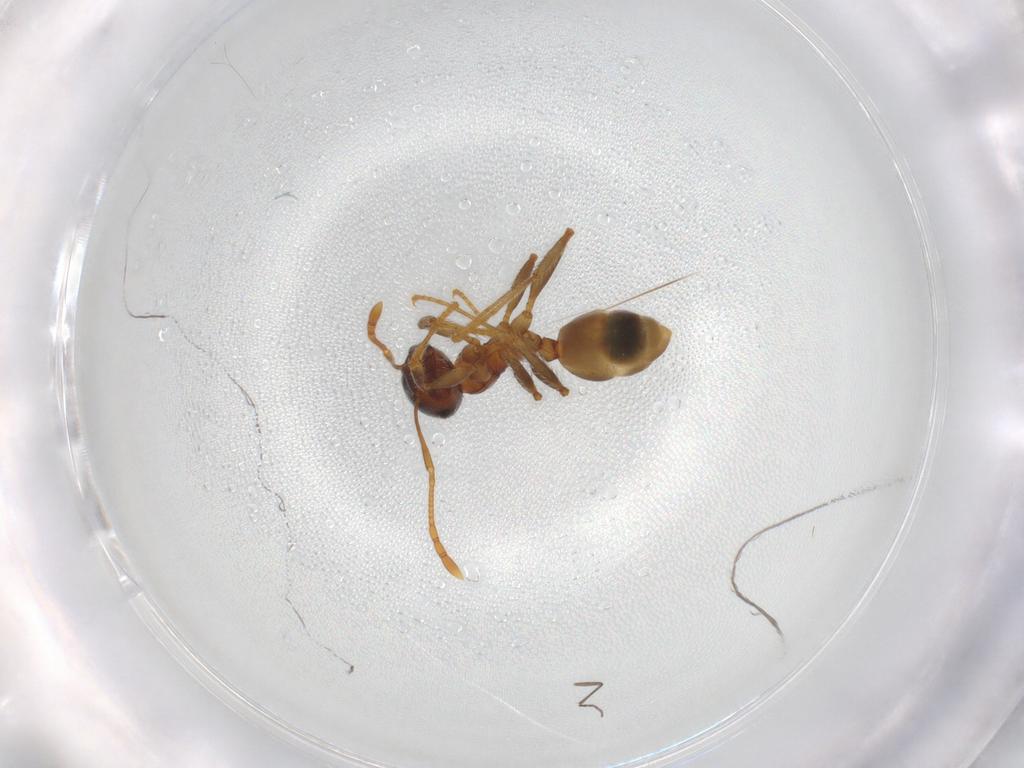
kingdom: Animalia
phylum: Arthropoda
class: Insecta
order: Hymenoptera
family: Formicidae
